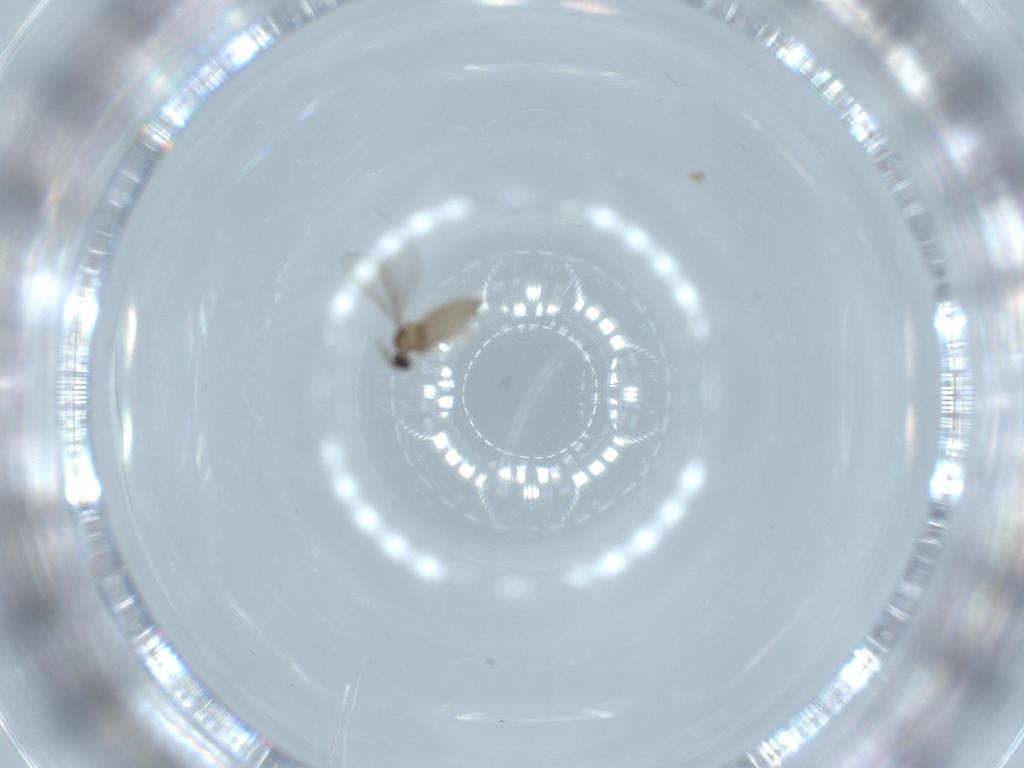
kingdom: Animalia
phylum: Arthropoda
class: Insecta
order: Diptera
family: Cecidomyiidae
